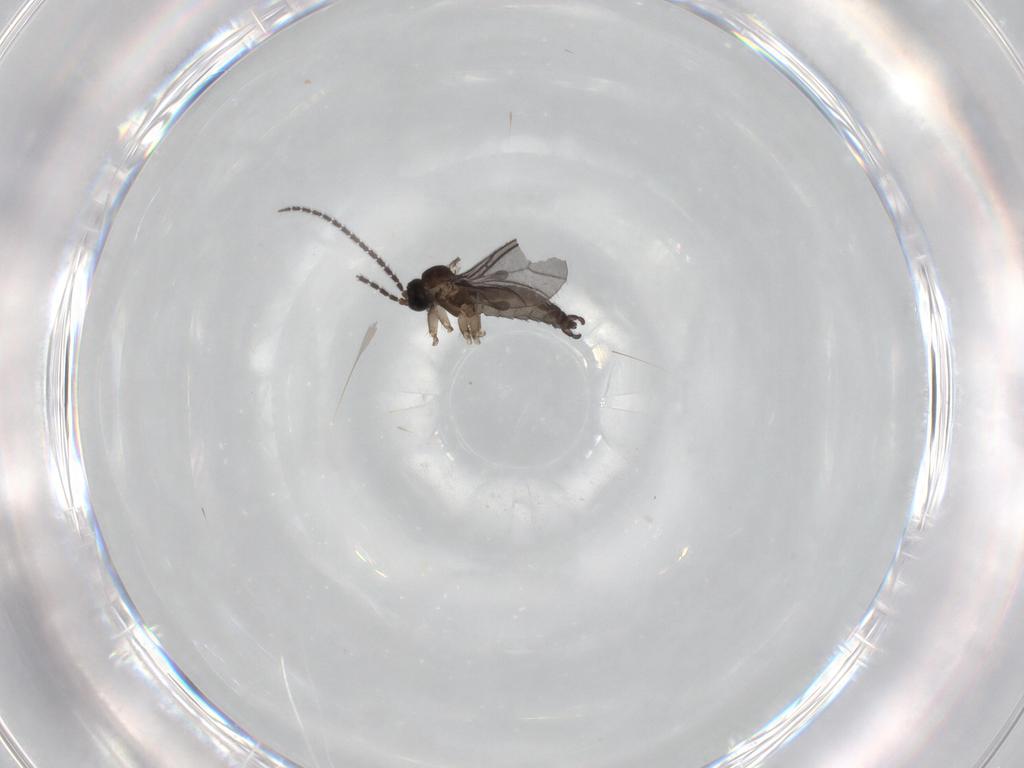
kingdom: Animalia
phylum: Arthropoda
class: Insecta
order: Diptera
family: Sciaridae
